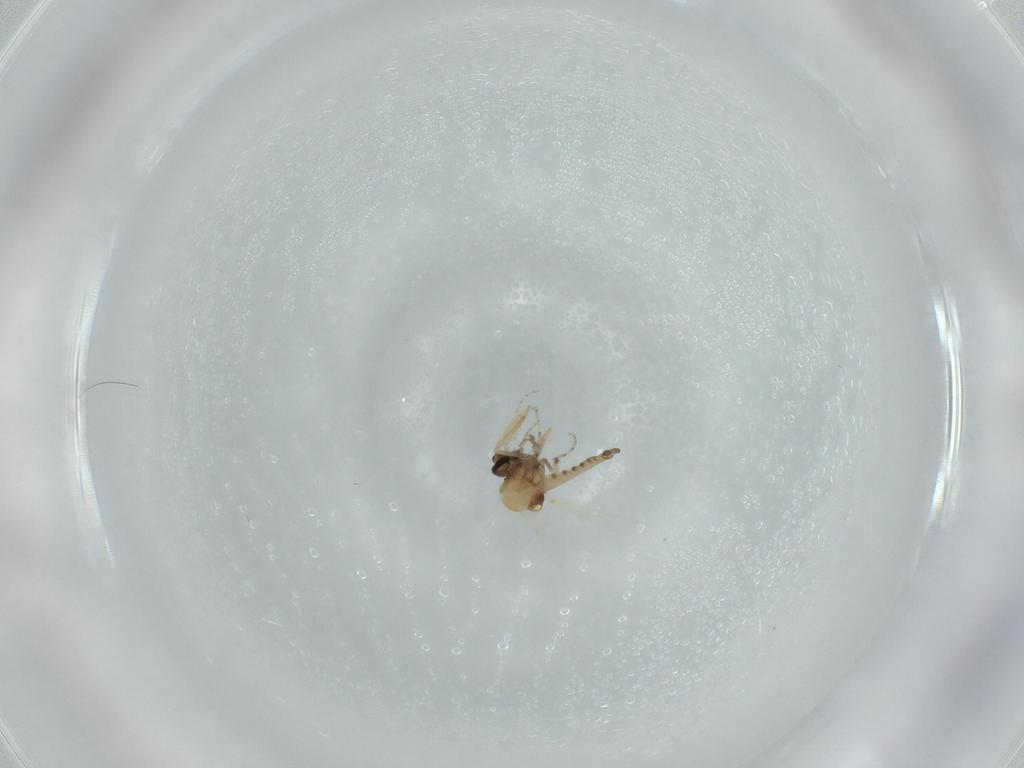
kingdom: Animalia
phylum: Arthropoda
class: Insecta
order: Diptera
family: Ceratopogonidae
